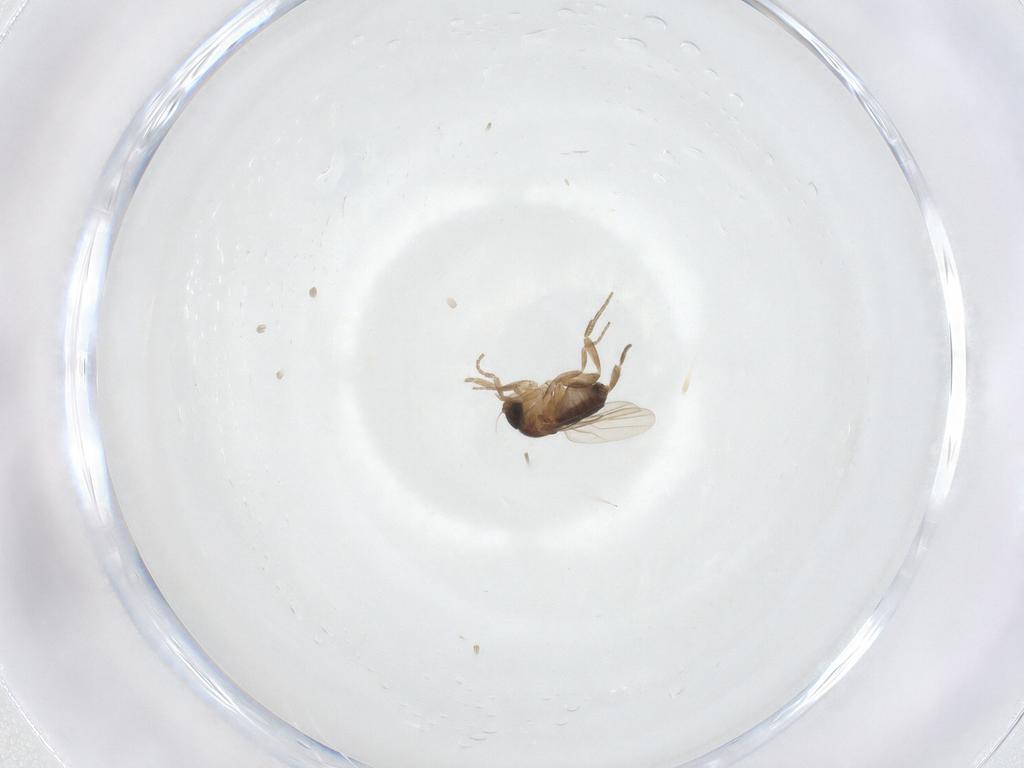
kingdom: Animalia
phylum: Arthropoda
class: Insecta
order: Diptera
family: Phoridae
